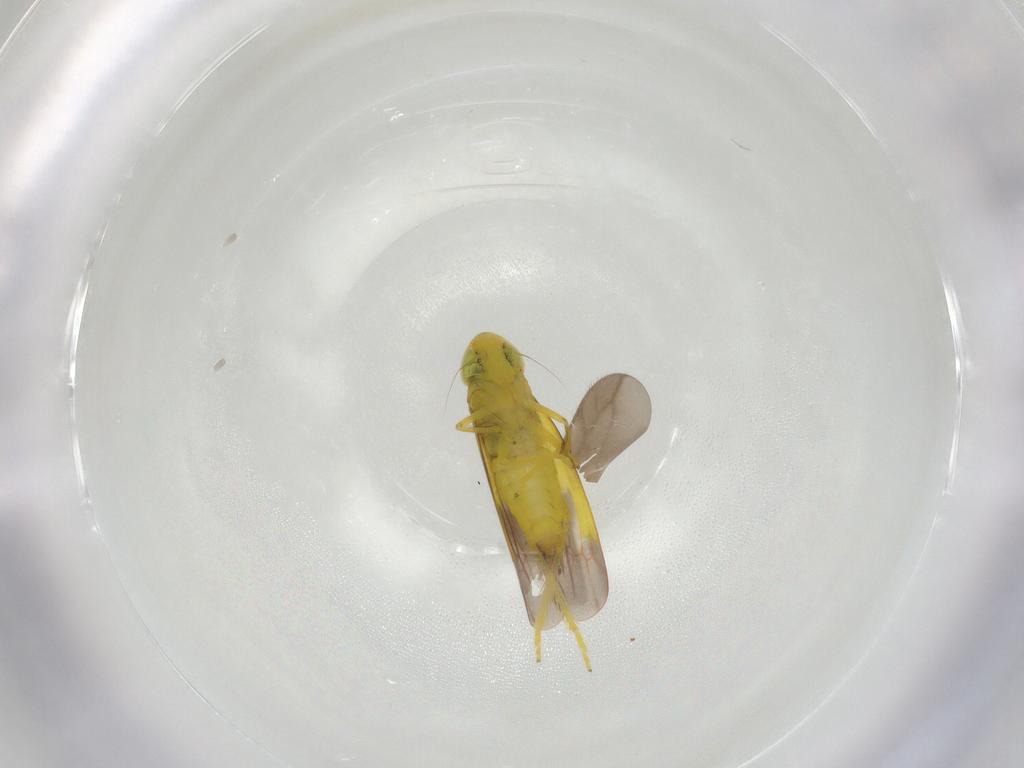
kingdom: Animalia
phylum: Arthropoda
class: Insecta
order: Hemiptera
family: Cicadellidae
